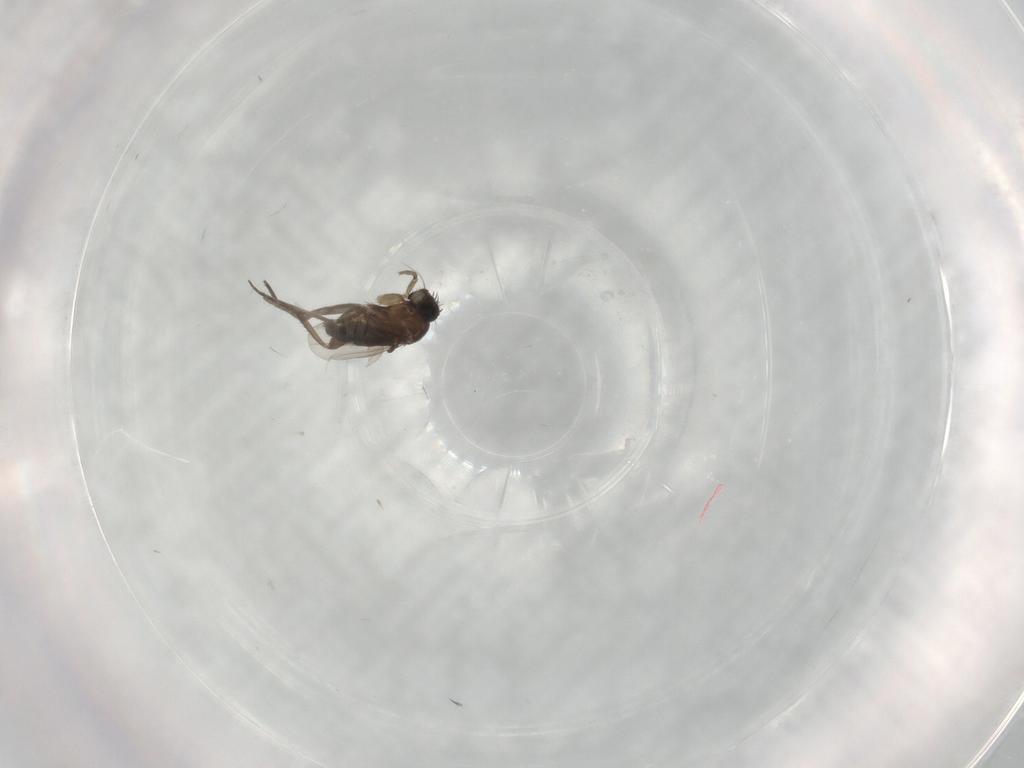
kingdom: Animalia
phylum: Arthropoda
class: Insecta
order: Diptera
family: Phoridae
